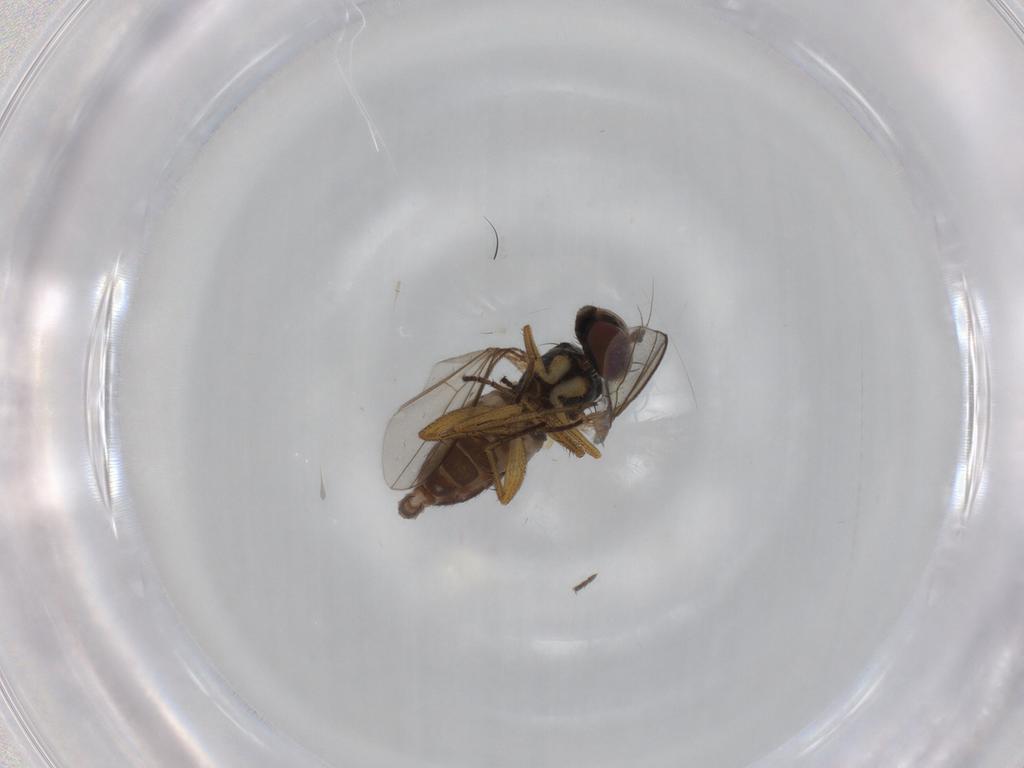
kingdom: Animalia
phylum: Arthropoda
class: Insecta
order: Diptera
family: Dolichopodidae
